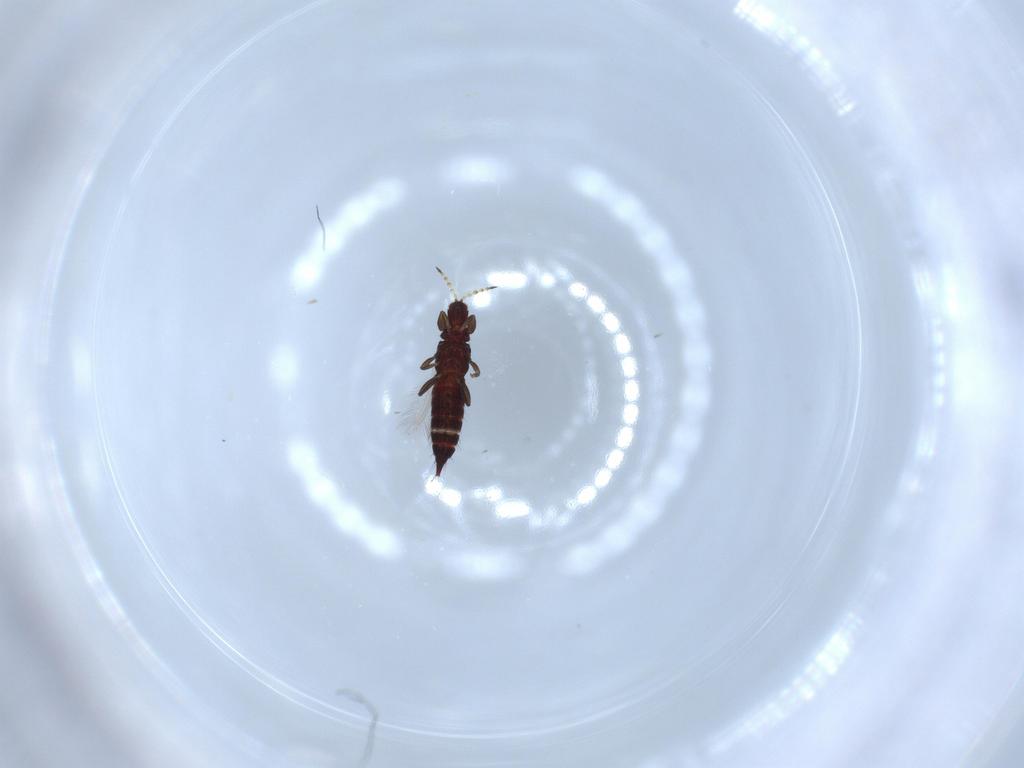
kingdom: Animalia
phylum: Arthropoda
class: Insecta
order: Thysanoptera
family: Phlaeothripidae
